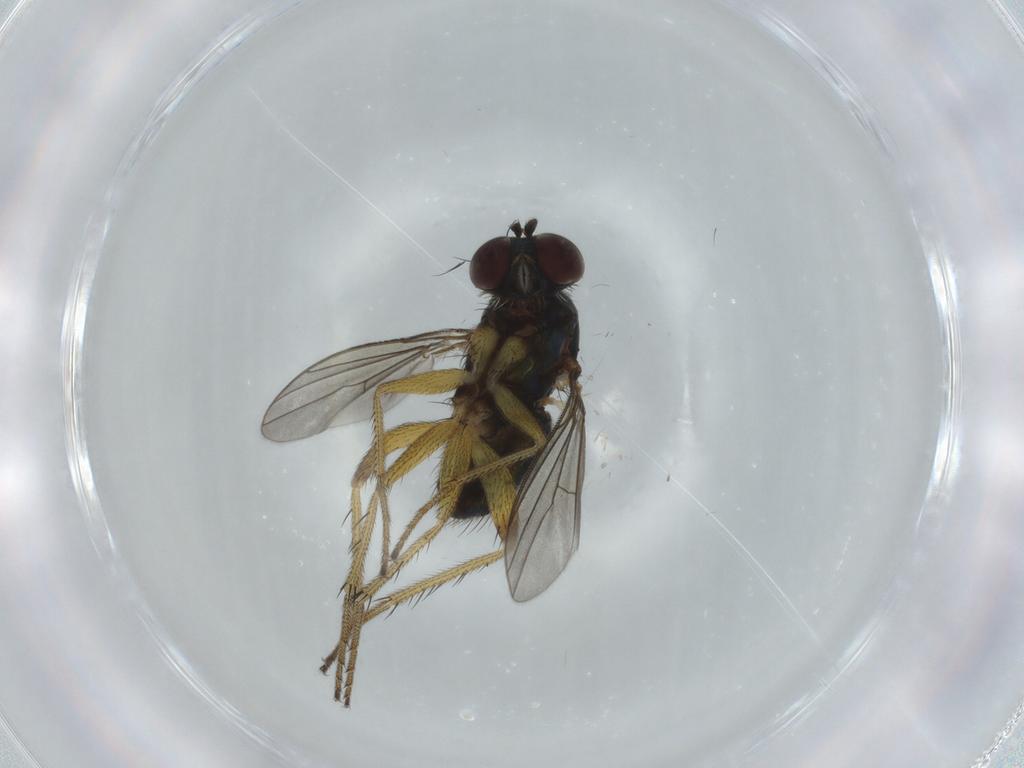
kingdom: Animalia
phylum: Arthropoda
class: Insecta
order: Diptera
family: Dolichopodidae
